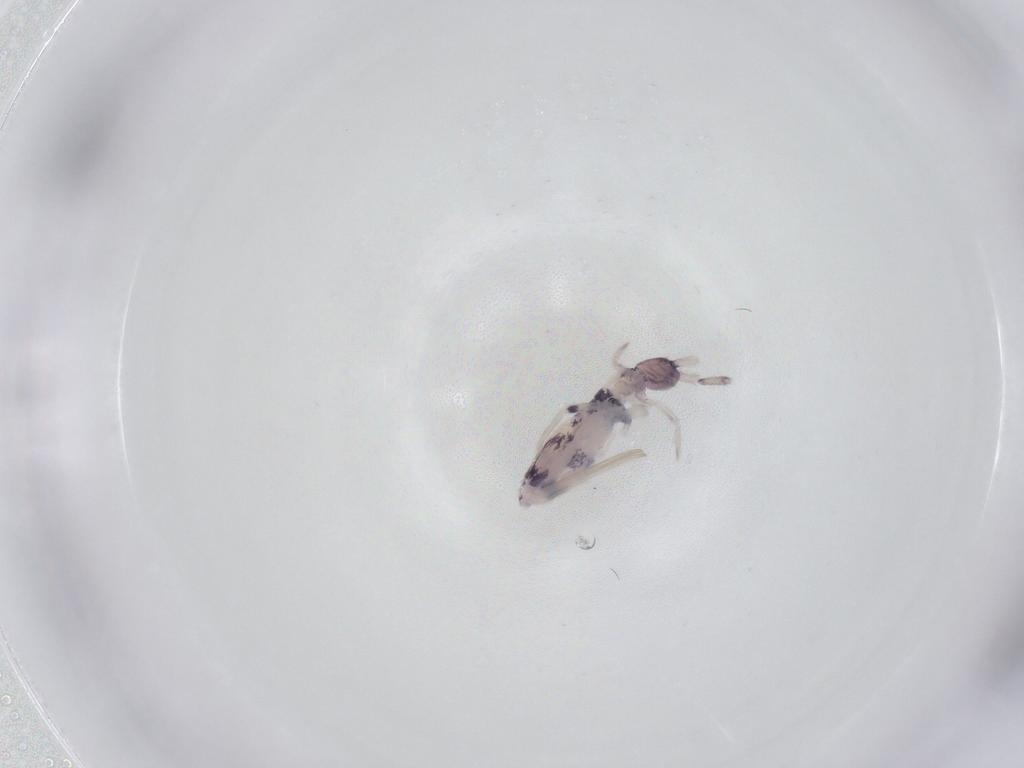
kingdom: Animalia
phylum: Arthropoda
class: Collembola
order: Entomobryomorpha
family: Entomobryidae
